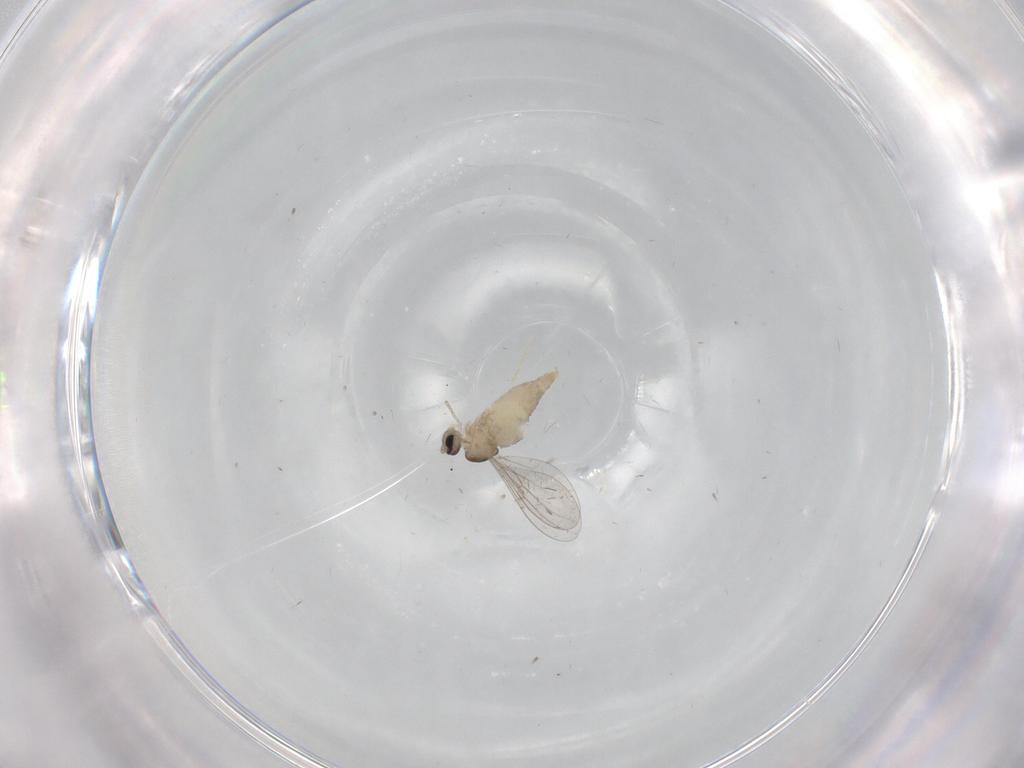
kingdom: Animalia
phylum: Arthropoda
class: Insecta
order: Diptera
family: Cecidomyiidae
